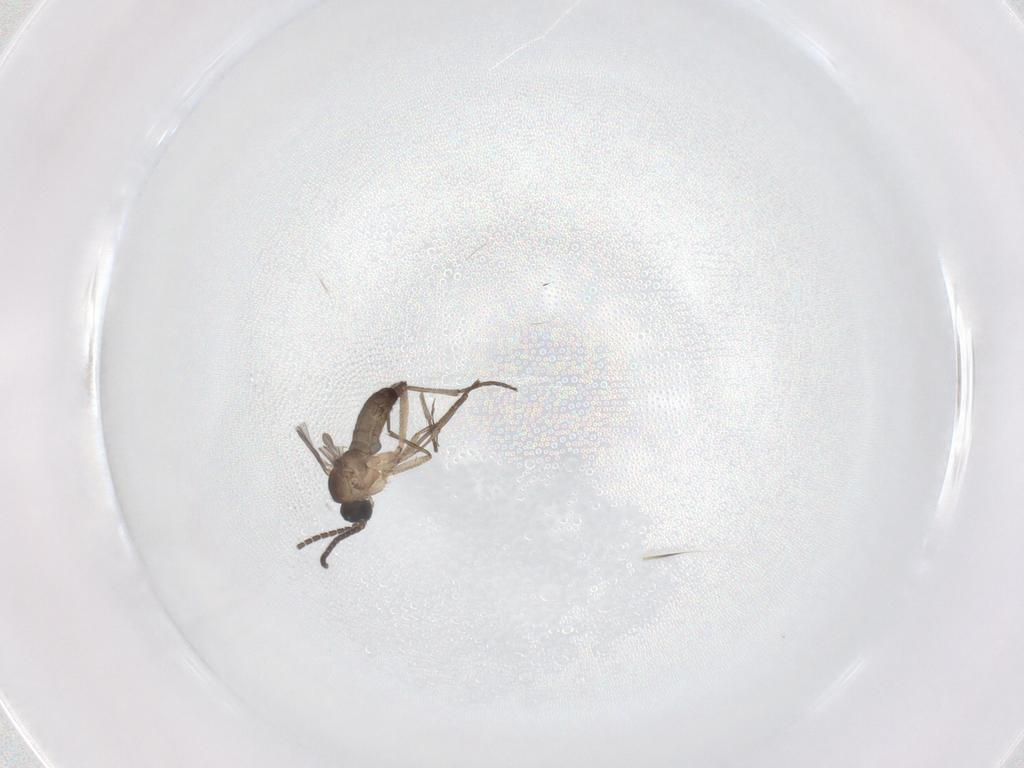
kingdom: Animalia
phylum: Arthropoda
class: Insecta
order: Diptera
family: Sciaridae
